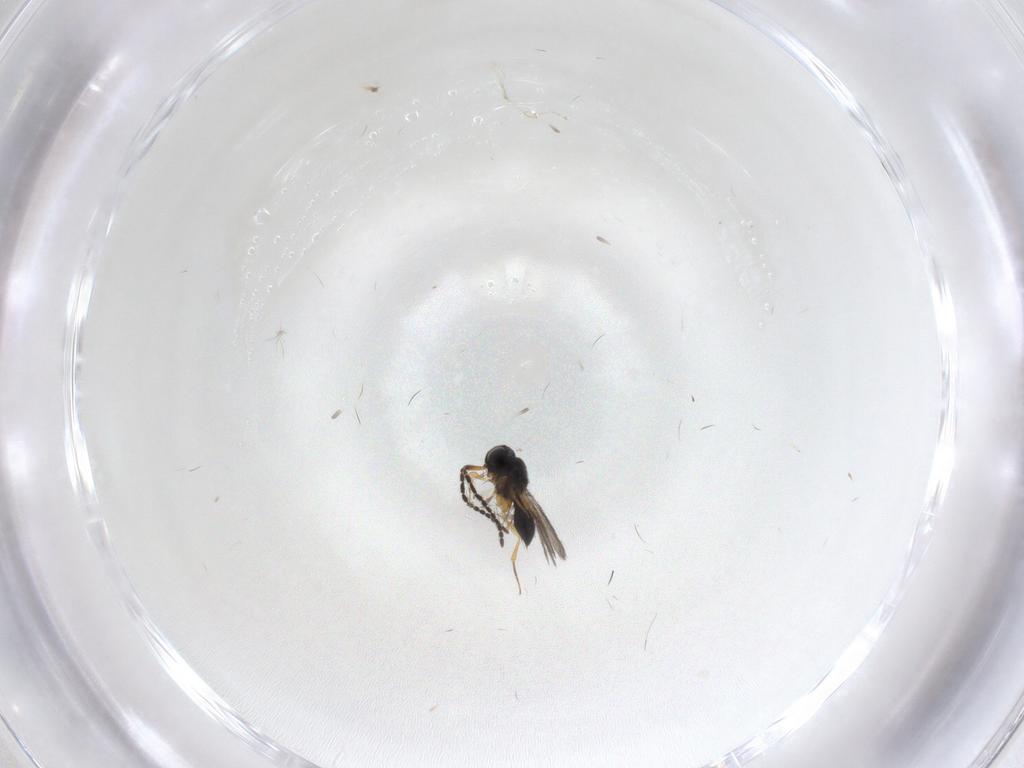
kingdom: Animalia
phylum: Arthropoda
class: Insecta
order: Hymenoptera
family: Scelionidae
